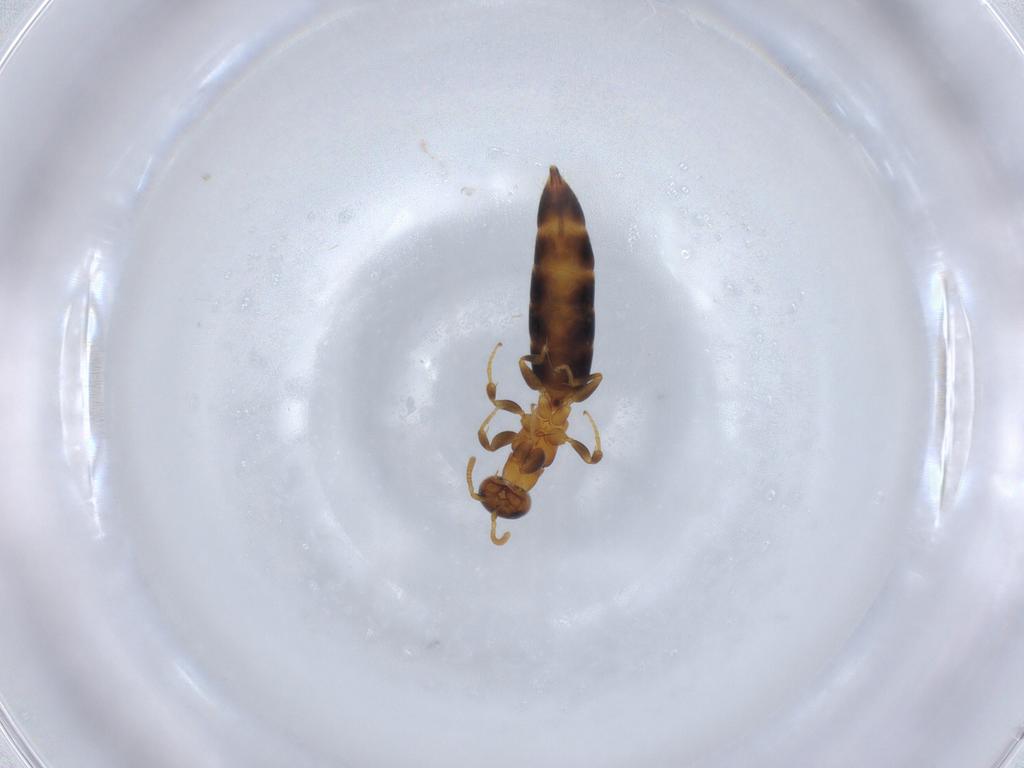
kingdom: Animalia
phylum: Arthropoda
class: Insecta
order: Hymenoptera
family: Bethylidae
